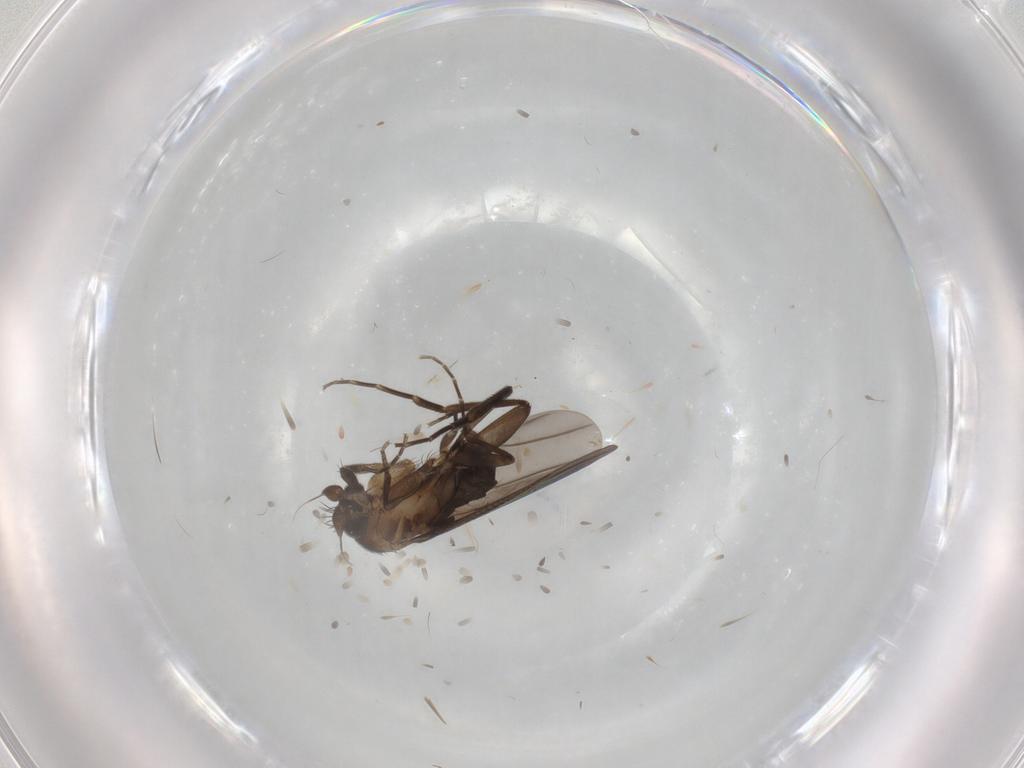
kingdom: Animalia
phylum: Arthropoda
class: Insecta
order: Diptera
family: Phoridae
